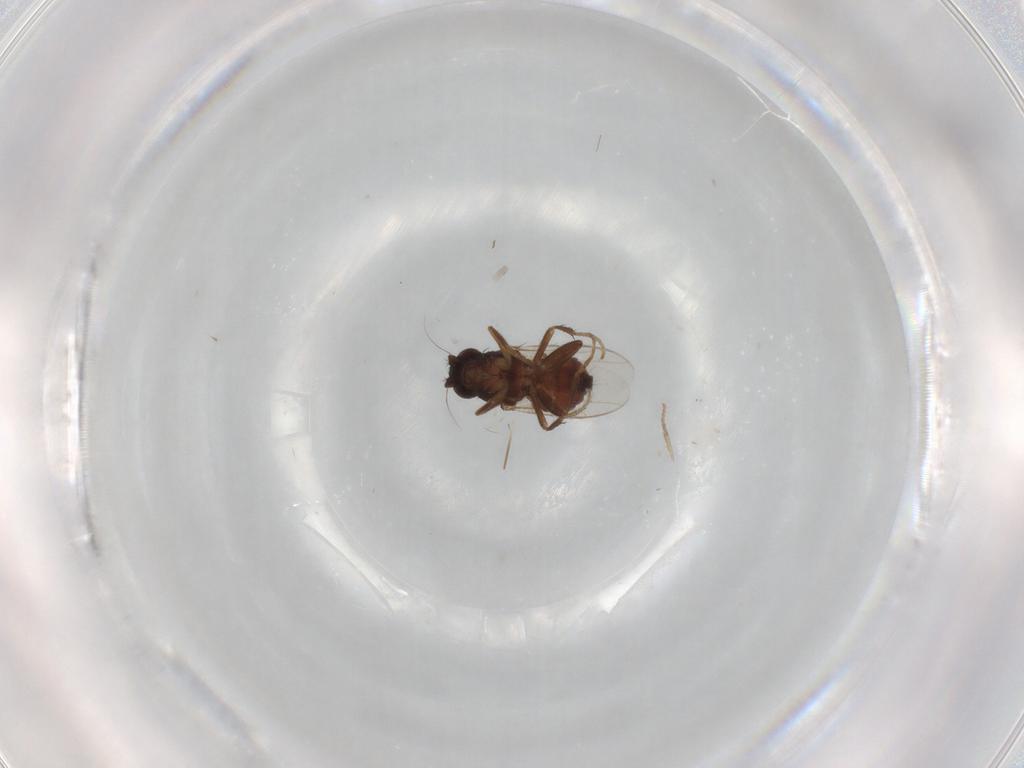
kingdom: Animalia
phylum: Arthropoda
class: Insecta
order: Diptera
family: Sphaeroceridae
